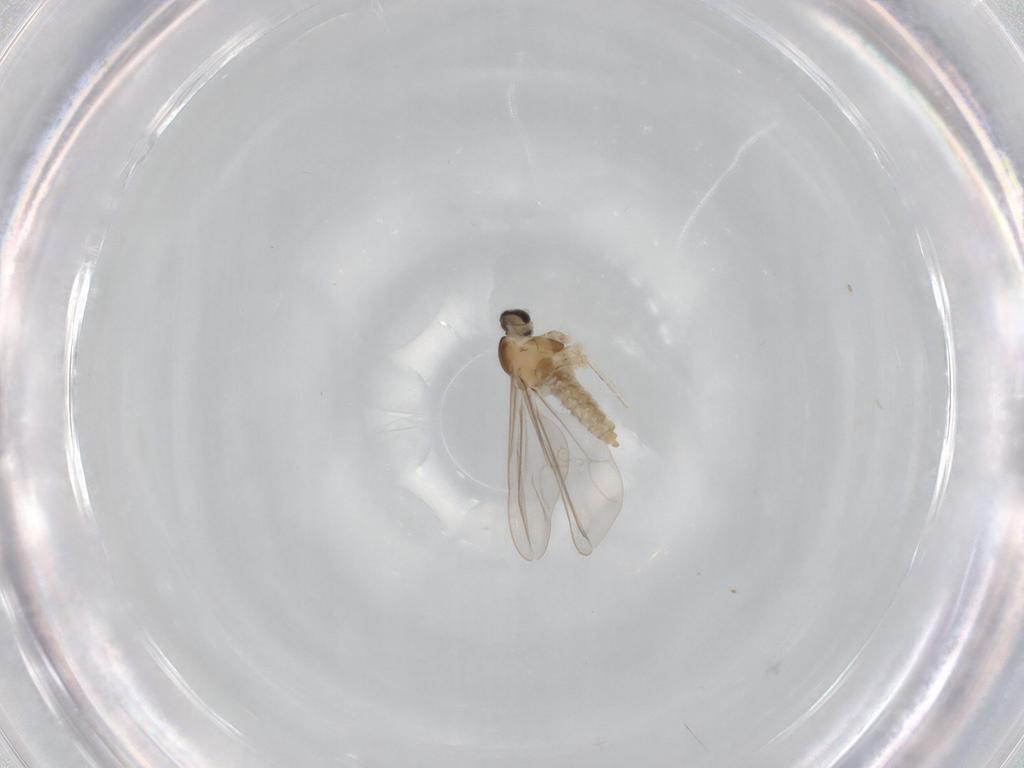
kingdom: Animalia
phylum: Arthropoda
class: Insecta
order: Diptera
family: Cecidomyiidae
